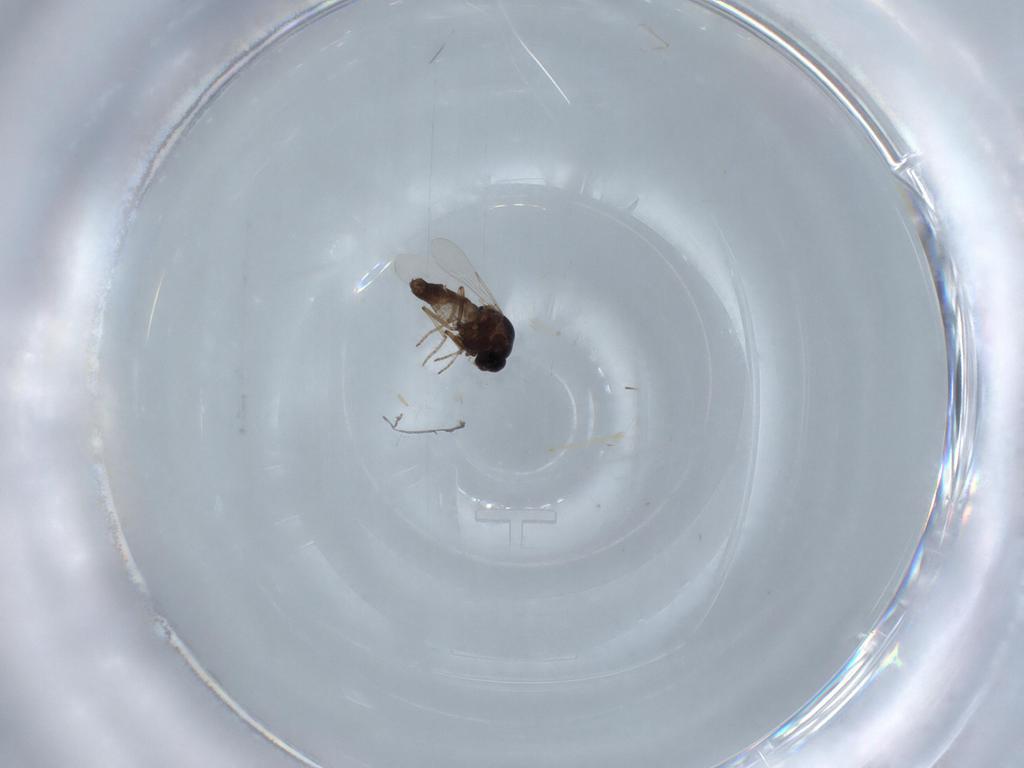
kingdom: Animalia
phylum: Arthropoda
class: Insecta
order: Diptera
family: Ceratopogonidae
